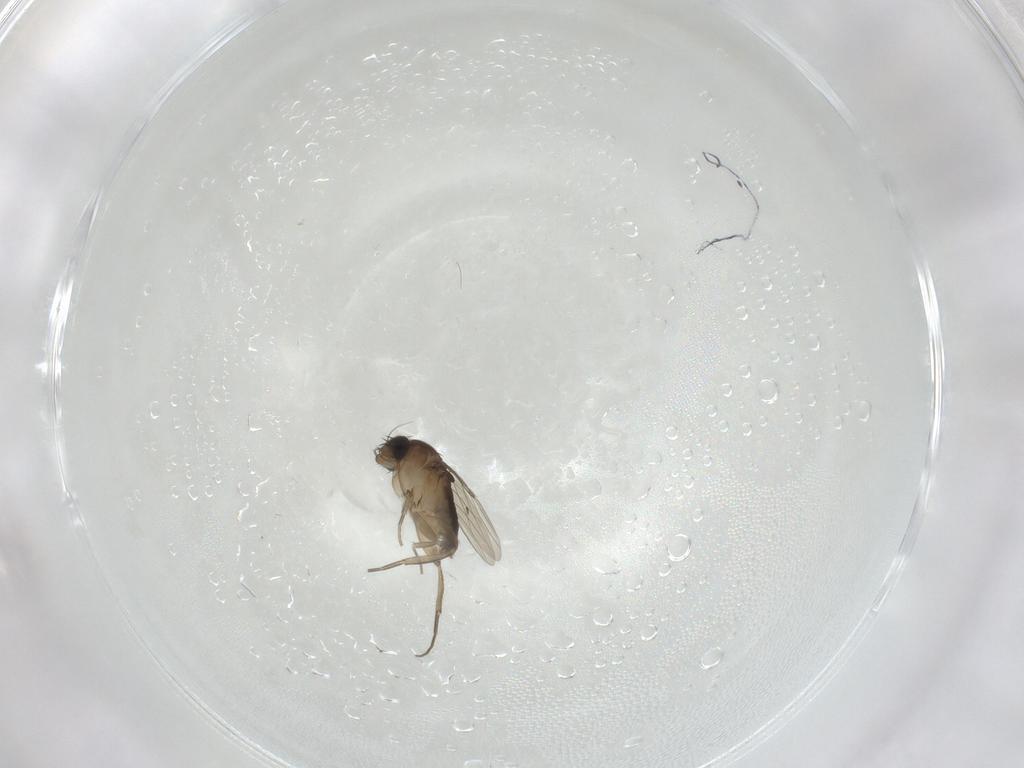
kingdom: Animalia
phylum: Arthropoda
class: Insecta
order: Diptera
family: Phoridae
